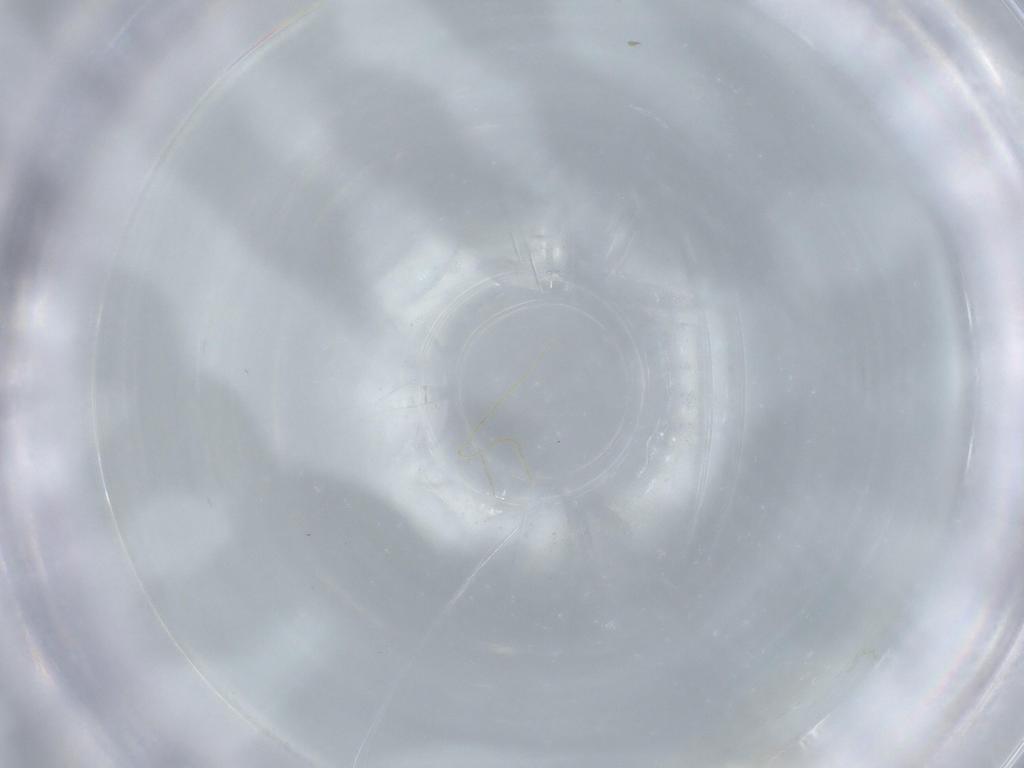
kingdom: Animalia
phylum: Arthropoda
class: Insecta
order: Diptera
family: Cecidomyiidae
